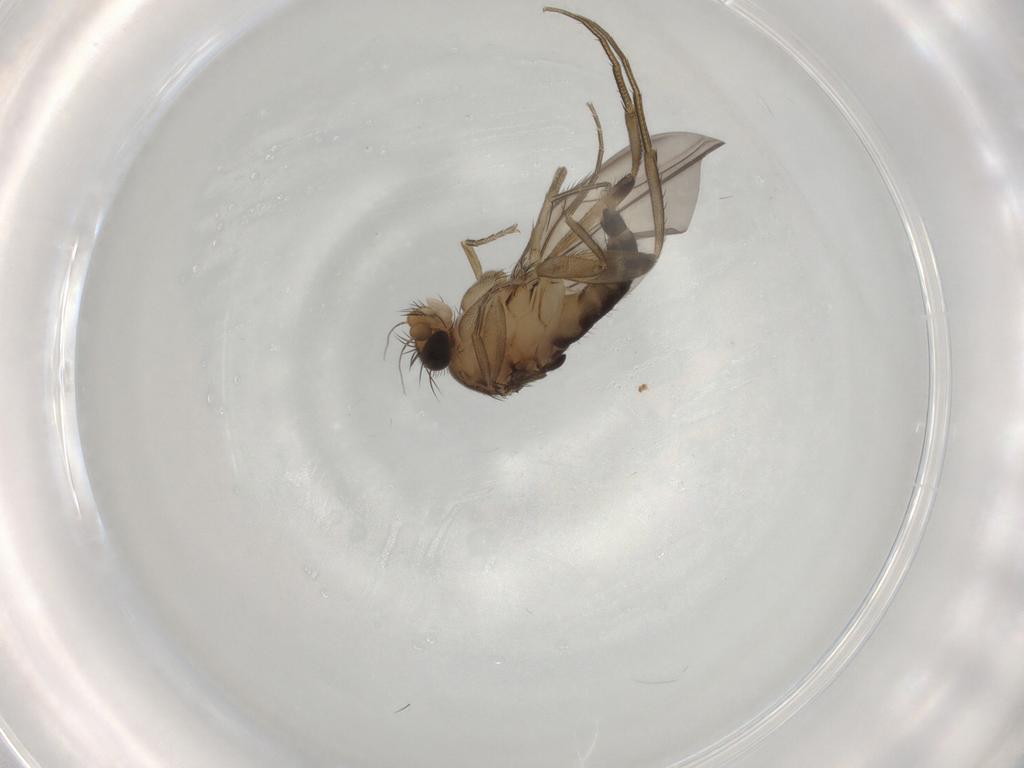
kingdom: Animalia
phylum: Arthropoda
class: Insecta
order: Diptera
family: Phoridae
